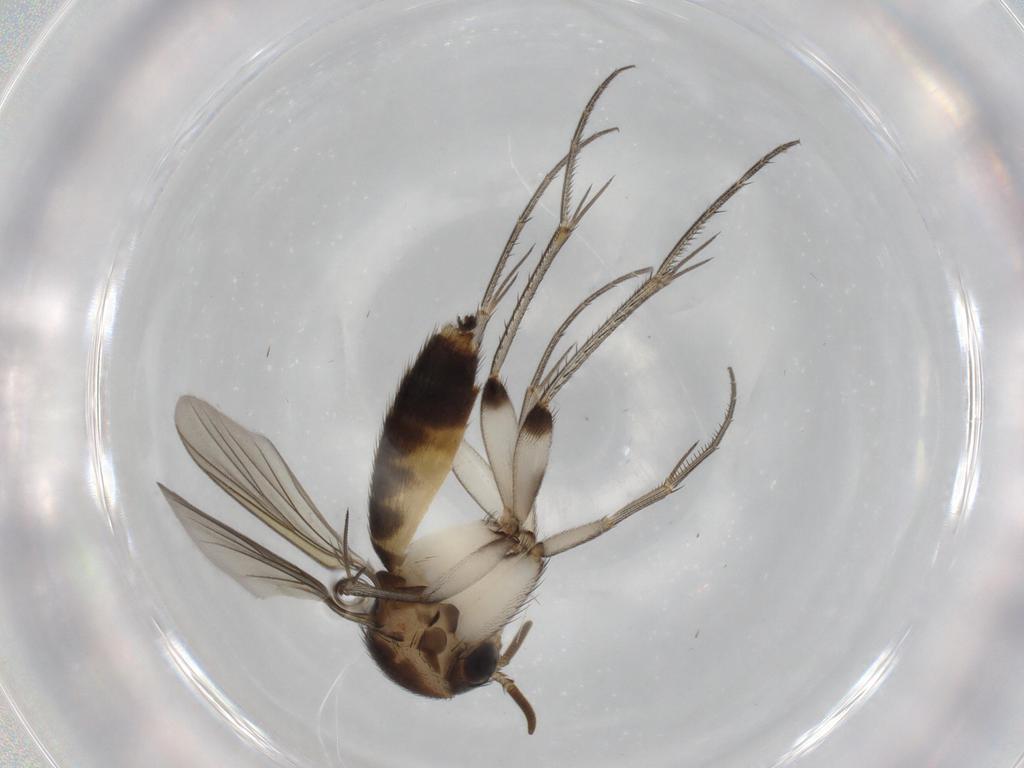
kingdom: Animalia
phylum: Arthropoda
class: Insecta
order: Diptera
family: Mycetophilidae
